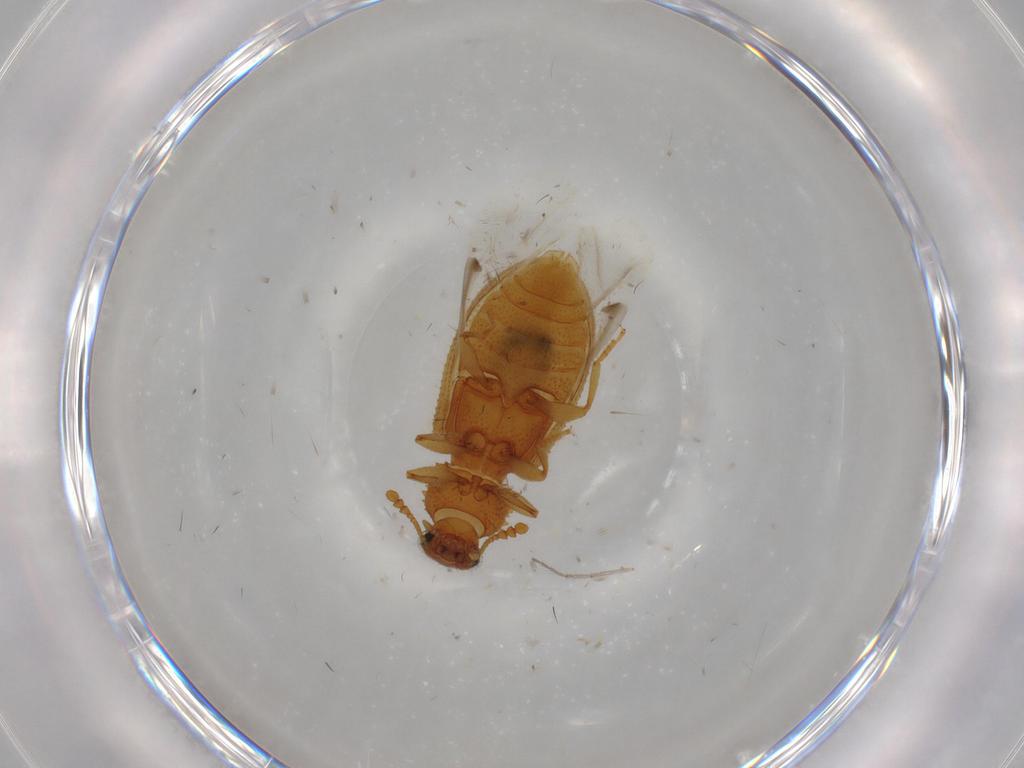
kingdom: Animalia
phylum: Arthropoda
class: Insecta
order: Coleoptera
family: Tenebrionidae
